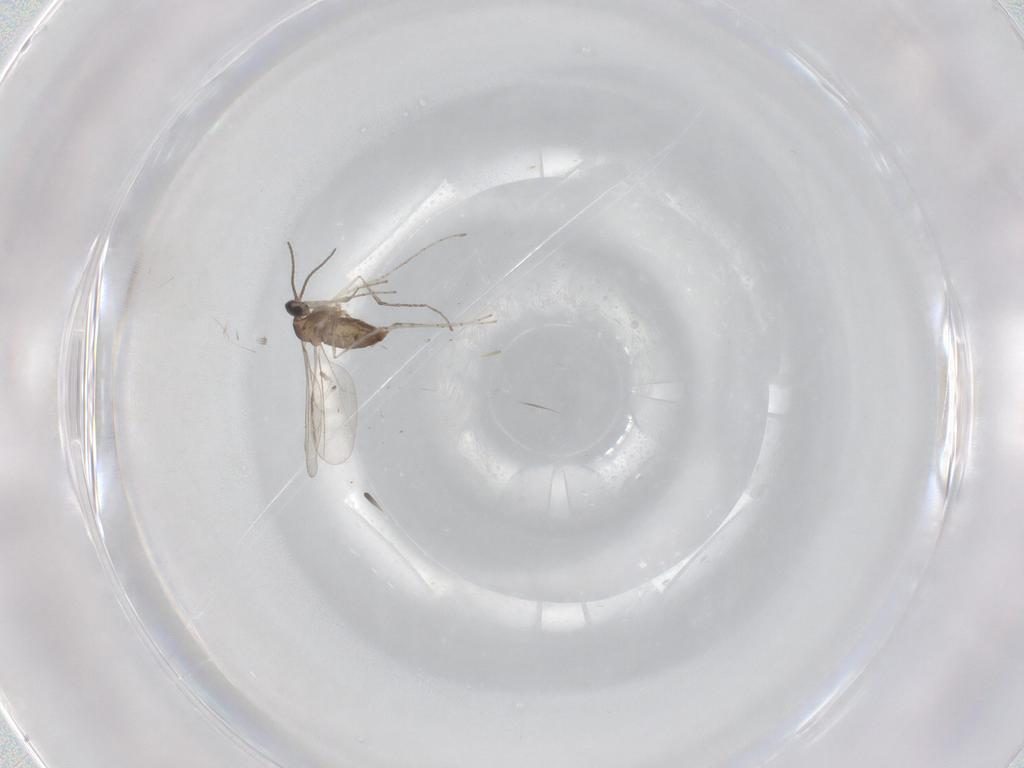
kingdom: Animalia
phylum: Arthropoda
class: Insecta
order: Diptera
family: Cecidomyiidae
